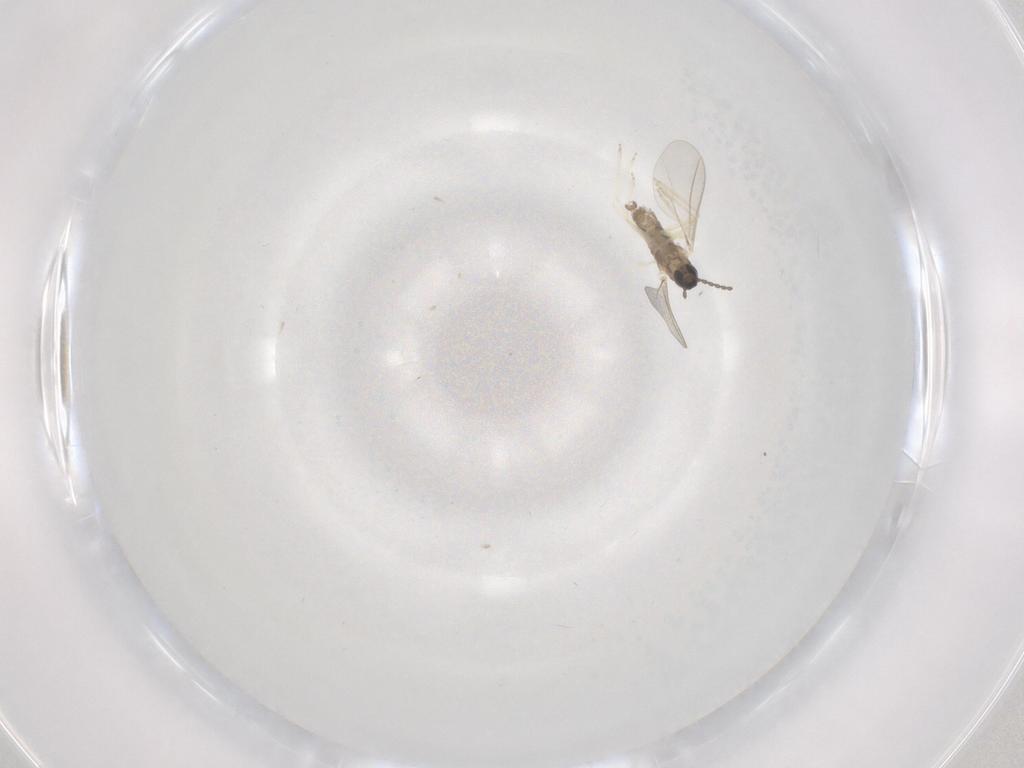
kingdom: Animalia
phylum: Arthropoda
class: Insecta
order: Diptera
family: Cecidomyiidae
